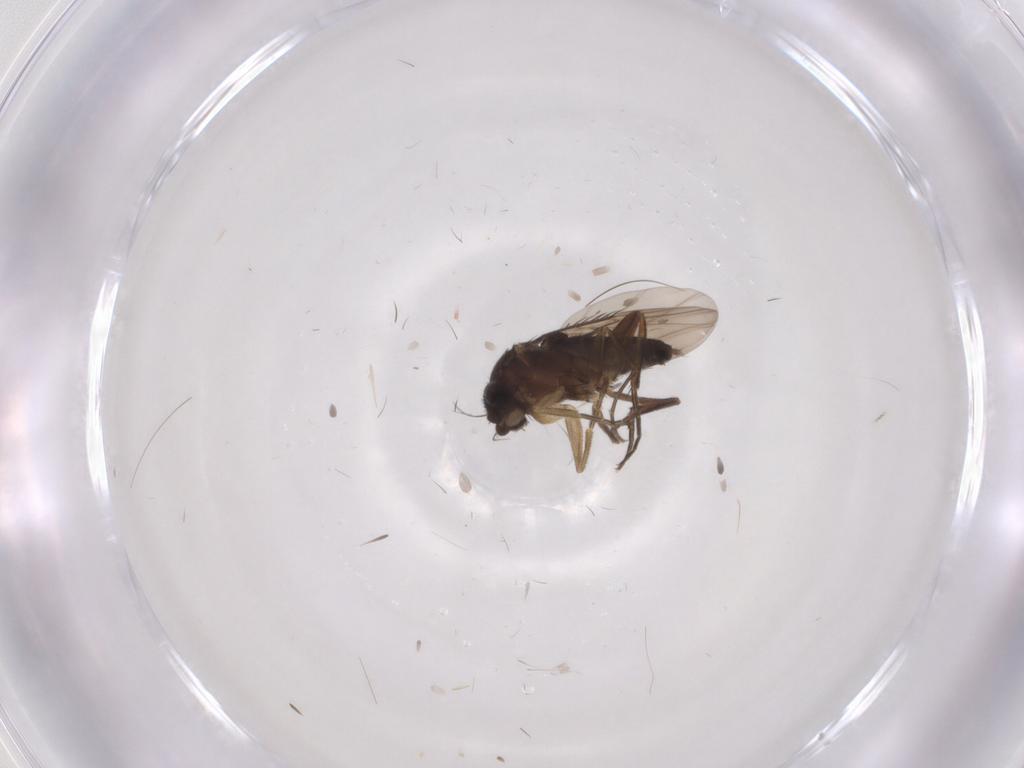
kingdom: Animalia
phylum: Arthropoda
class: Insecta
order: Diptera
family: Phoridae
